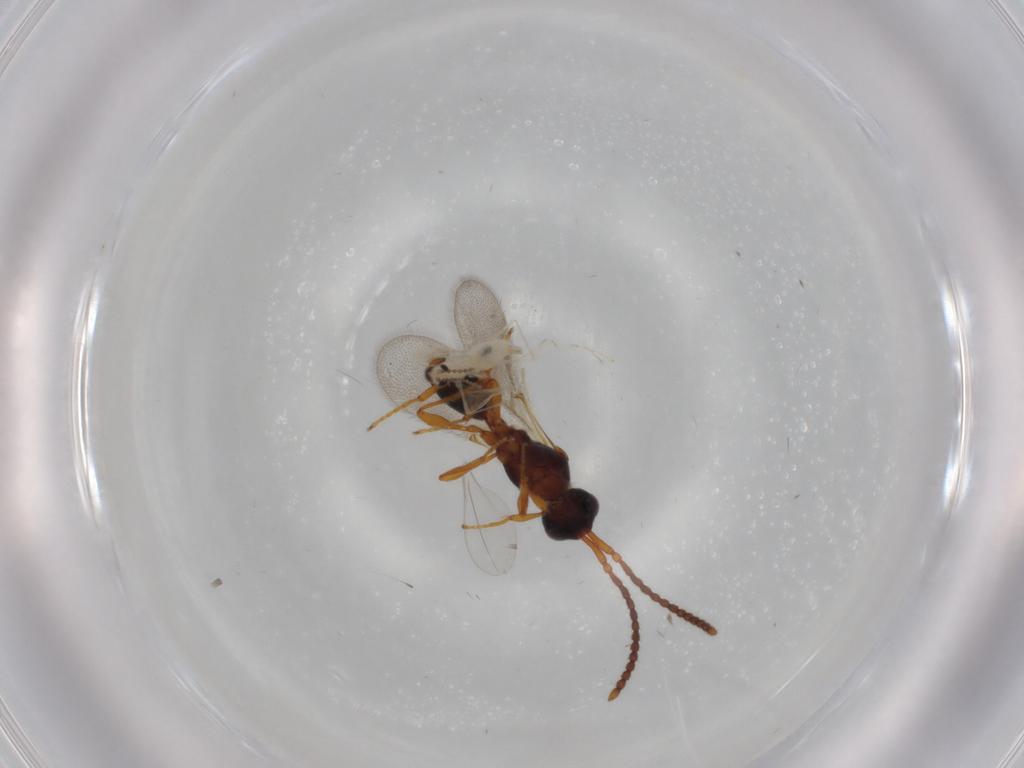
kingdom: Animalia
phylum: Arthropoda
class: Insecta
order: Hymenoptera
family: Diapriidae
